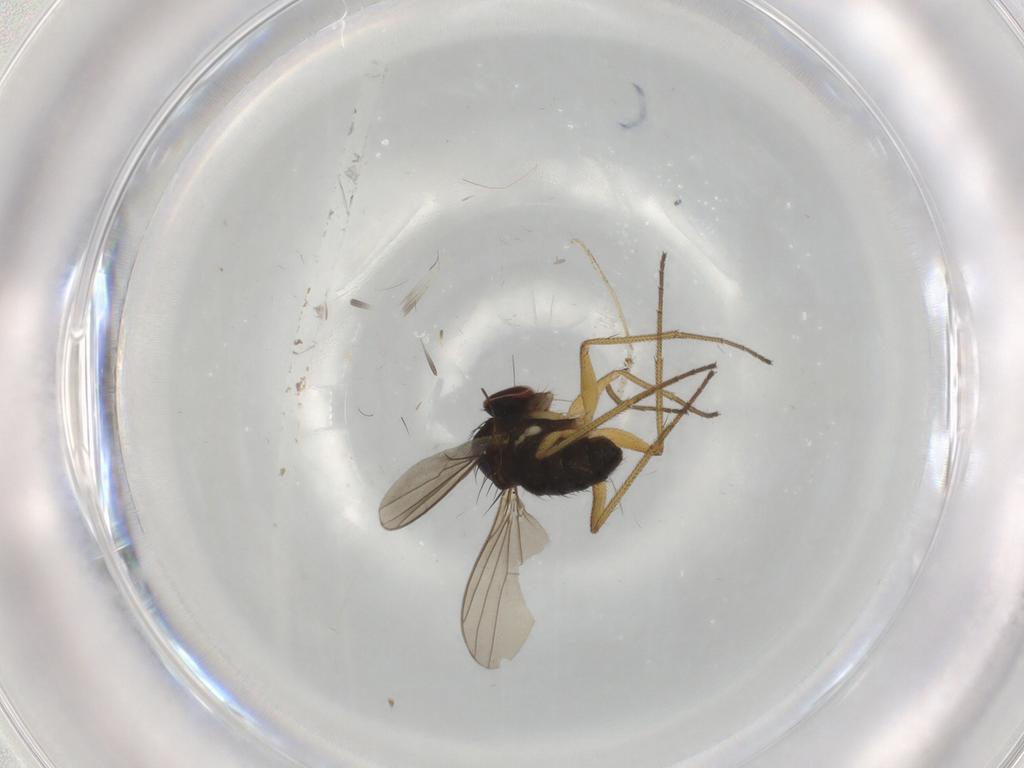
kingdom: Animalia
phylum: Arthropoda
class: Insecta
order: Diptera
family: Dolichopodidae
